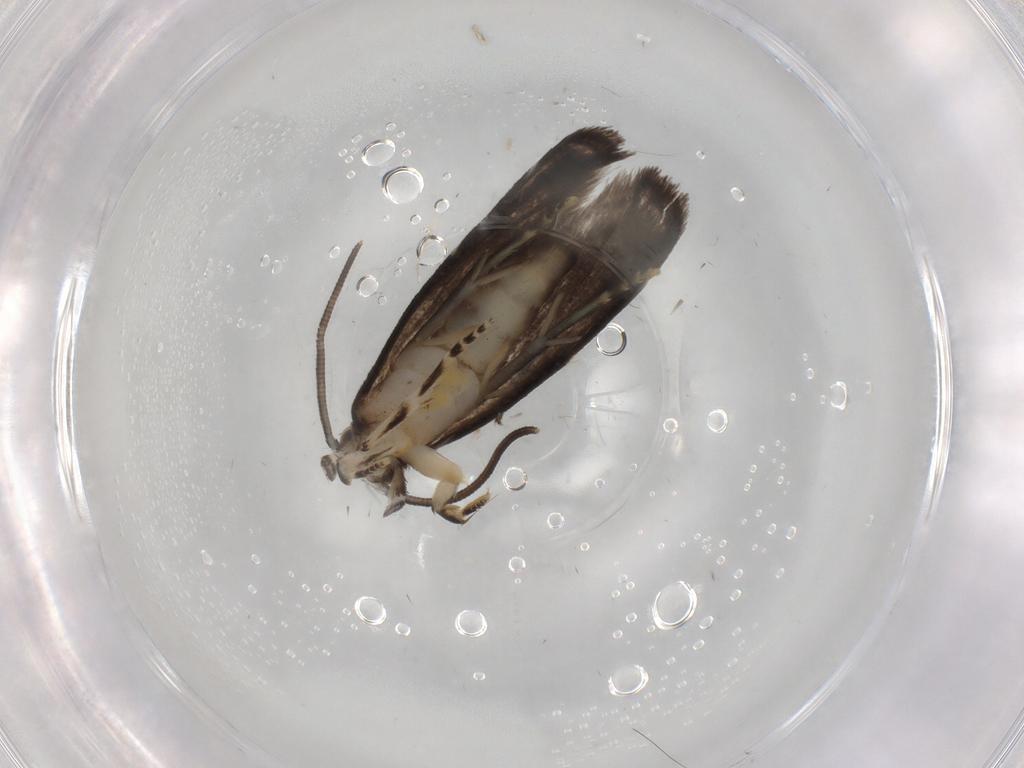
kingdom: Animalia
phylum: Arthropoda
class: Insecta
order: Lepidoptera
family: Dryadaulidae
